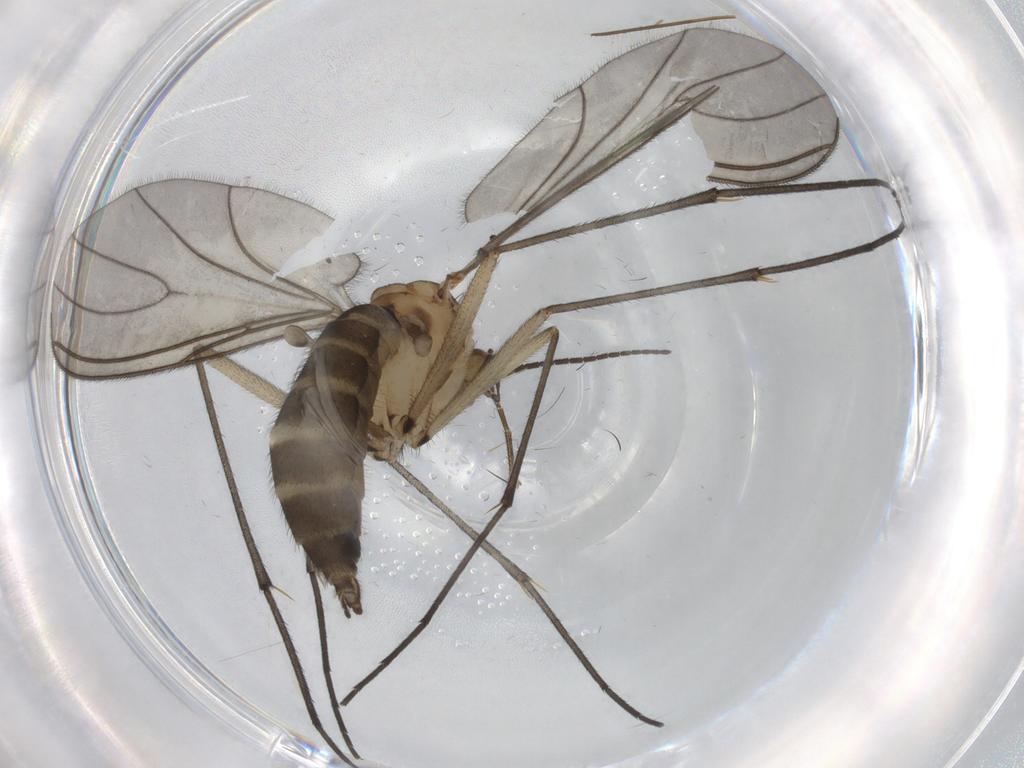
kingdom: Animalia
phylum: Arthropoda
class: Insecta
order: Diptera
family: Sciaridae
